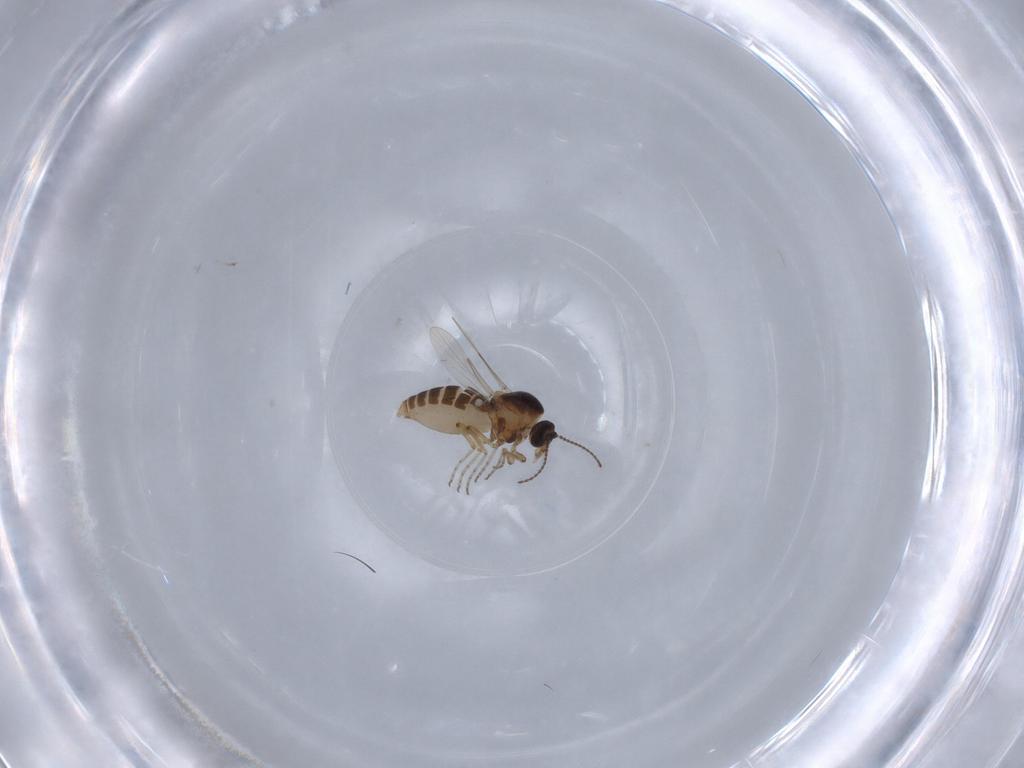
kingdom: Animalia
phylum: Arthropoda
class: Insecta
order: Diptera
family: Ceratopogonidae
